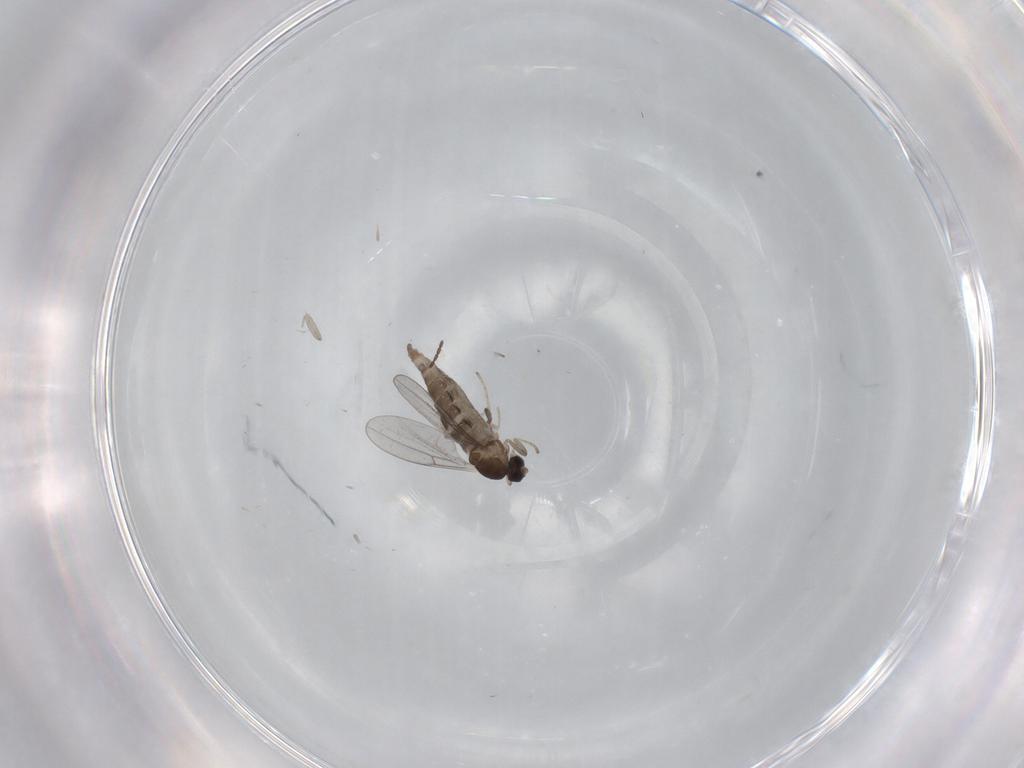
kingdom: Animalia
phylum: Arthropoda
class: Insecta
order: Diptera
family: Cecidomyiidae
